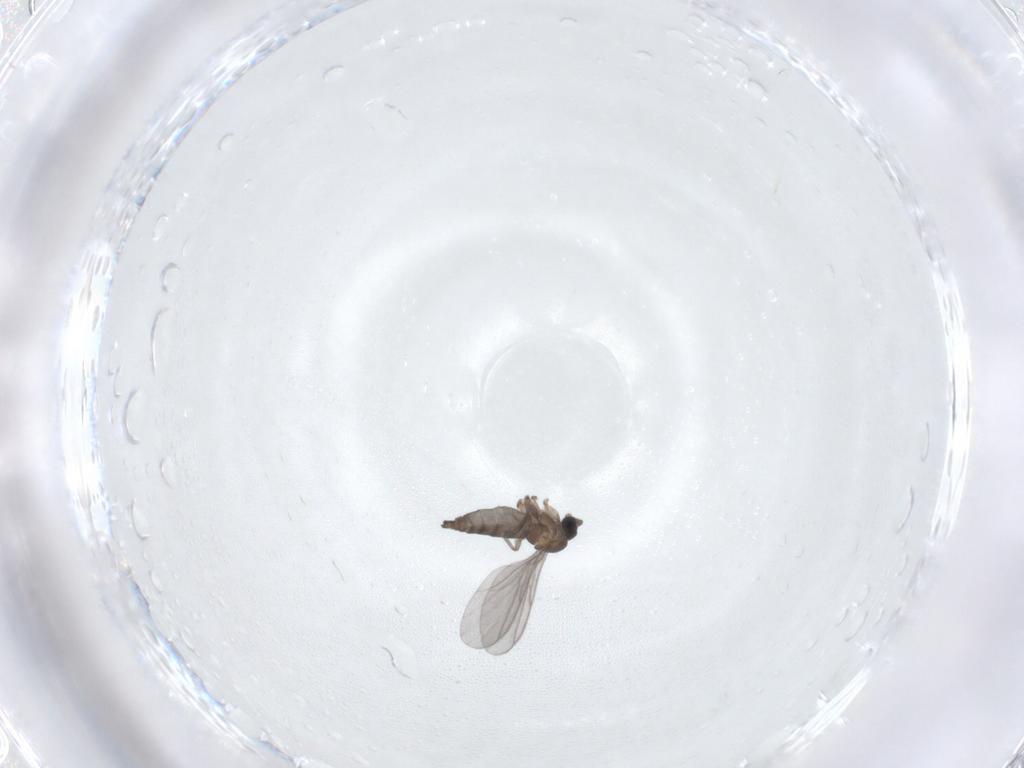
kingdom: Animalia
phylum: Arthropoda
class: Insecta
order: Diptera
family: Sciaridae
